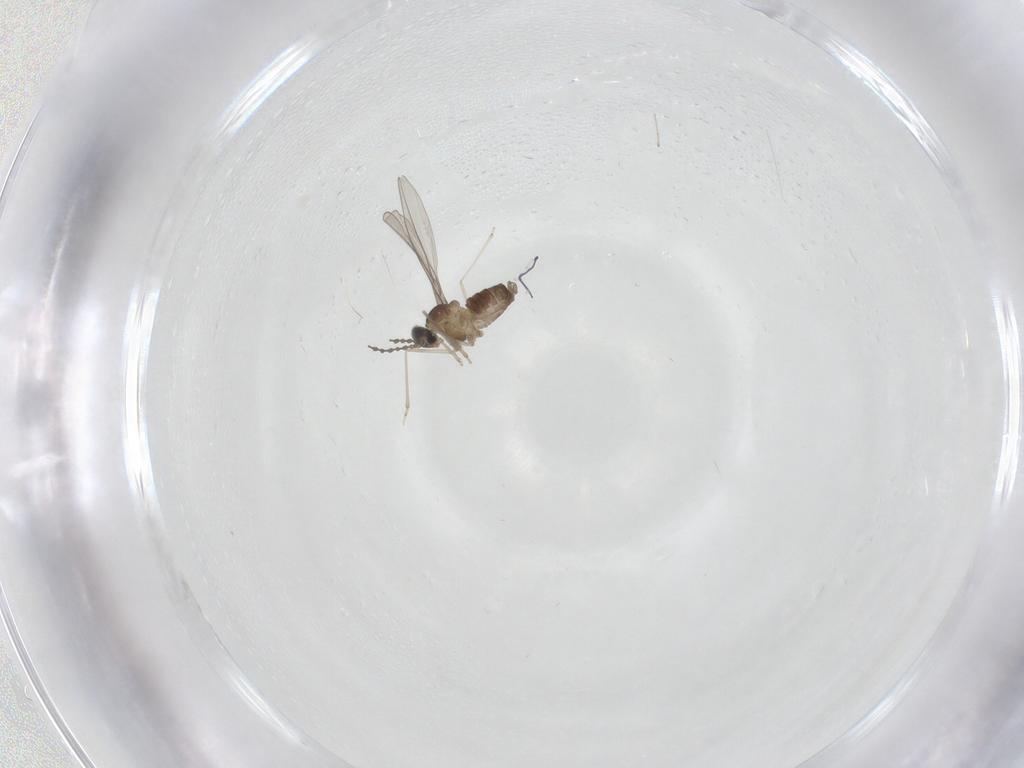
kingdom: Animalia
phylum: Arthropoda
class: Insecta
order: Diptera
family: Cecidomyiidae
